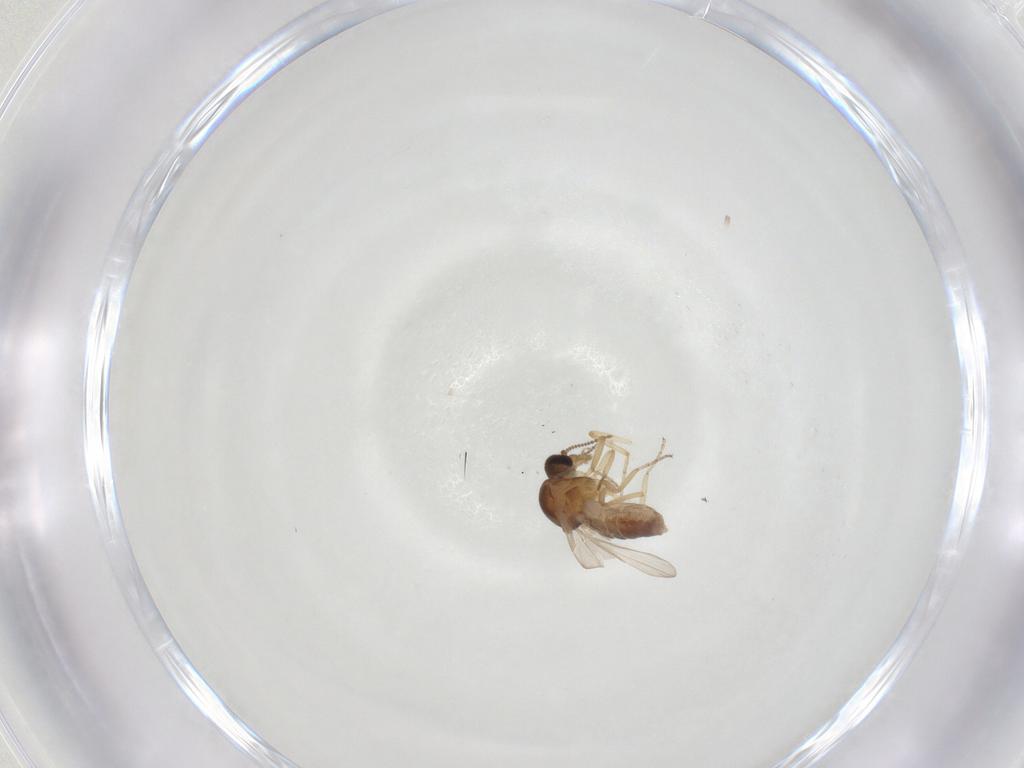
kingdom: Animalia
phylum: Arthropoda
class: Insecta
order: Diptera
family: Ceratopogonidae
